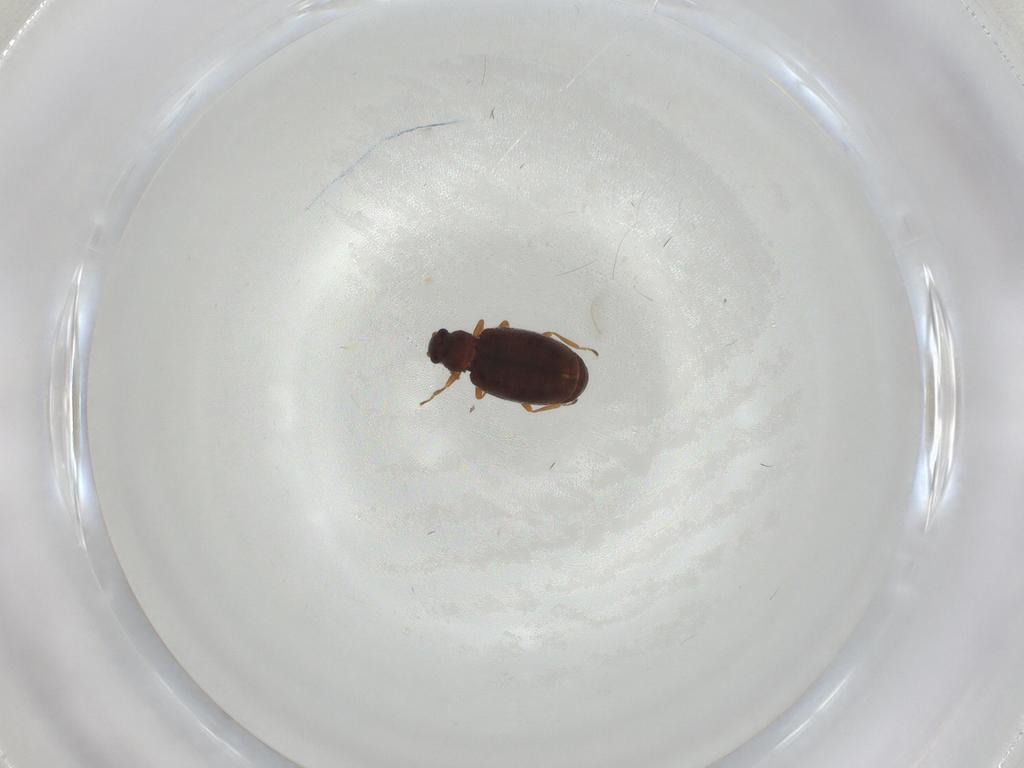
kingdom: Animalia
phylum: Arthropoda
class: Insecta
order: Coleoptera
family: Latridiidae
